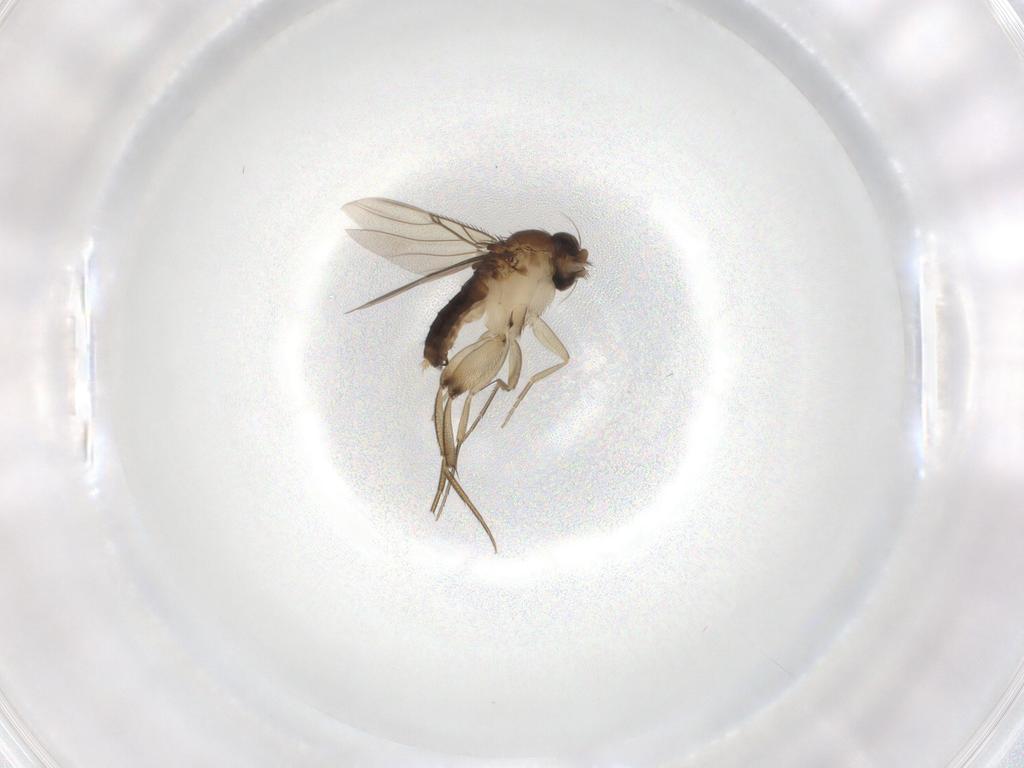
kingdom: Animalia
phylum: Arthropoda
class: Insecta
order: Diptera
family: Phoridae
